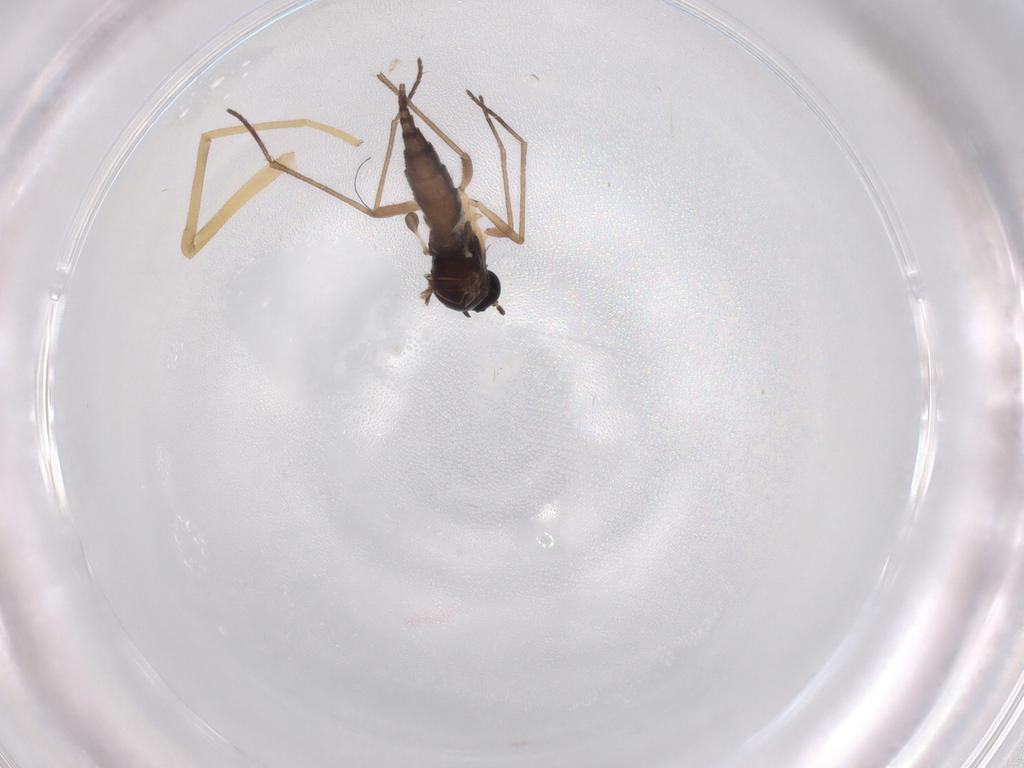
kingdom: Animalia
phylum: Arthropoda
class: Insecta
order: Diptera
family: Sciaridae
